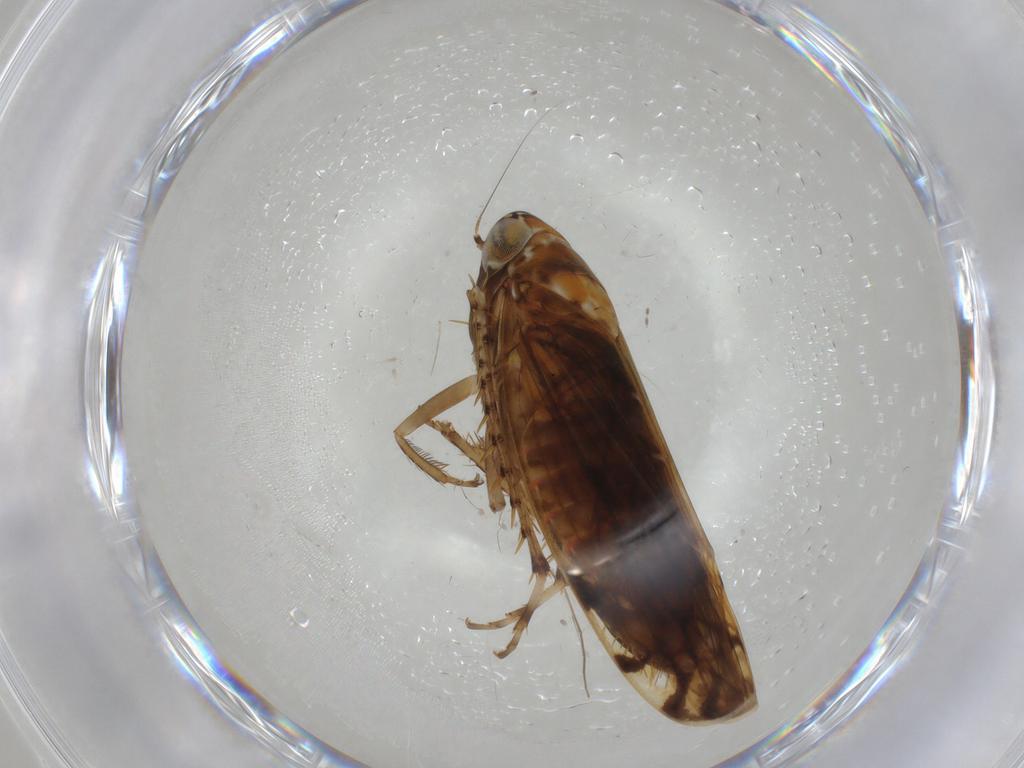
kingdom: Animalia
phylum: Arthropoda
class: Insecta
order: Hemiptera
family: Cicadellidae
